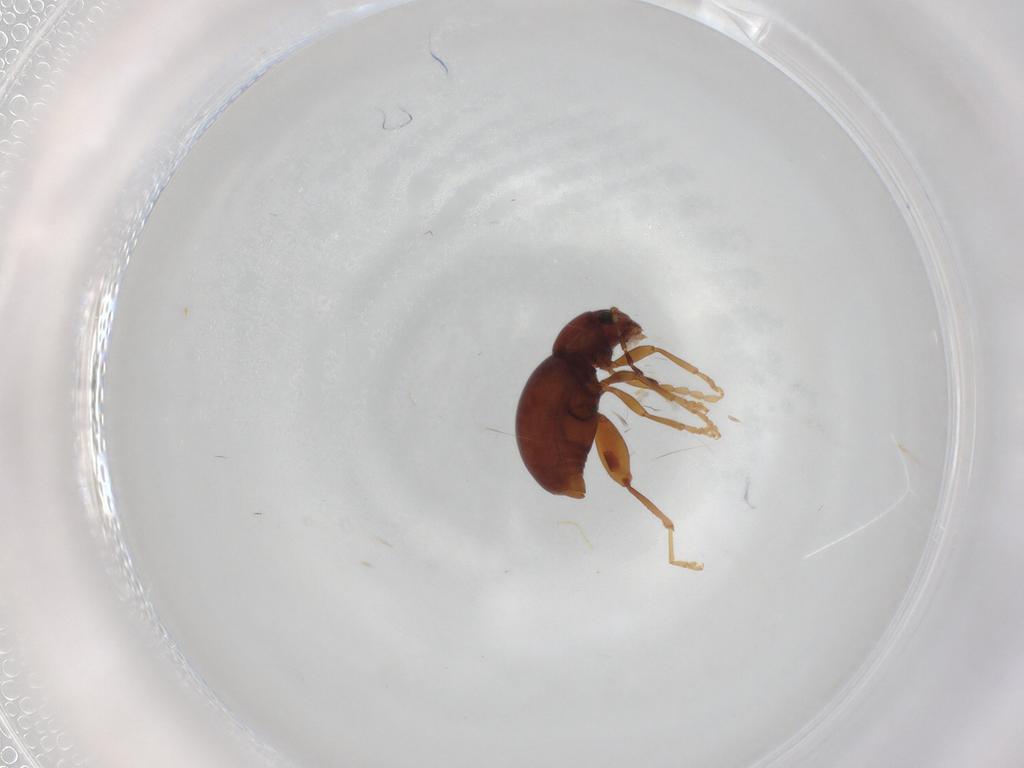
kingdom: Animalia
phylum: Arthropoda
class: Insecta
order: Coleoptera
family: Chrysomelidae
